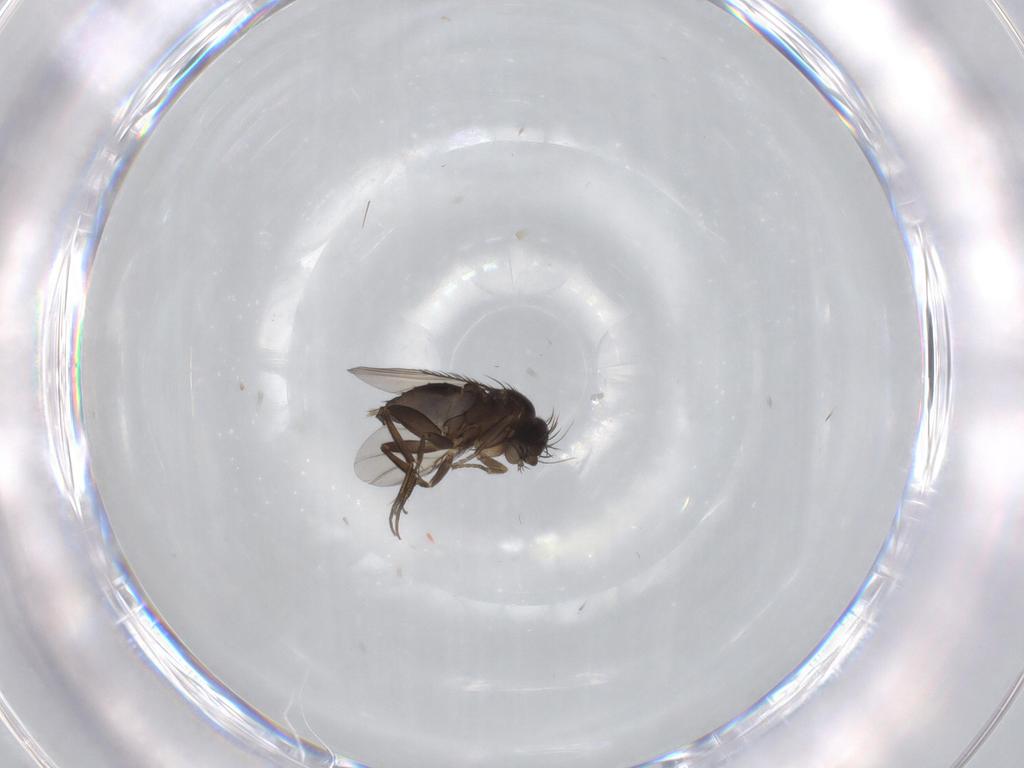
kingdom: Animalia
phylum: Arthropoda
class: Insecta
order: Diptera
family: Phoridae
